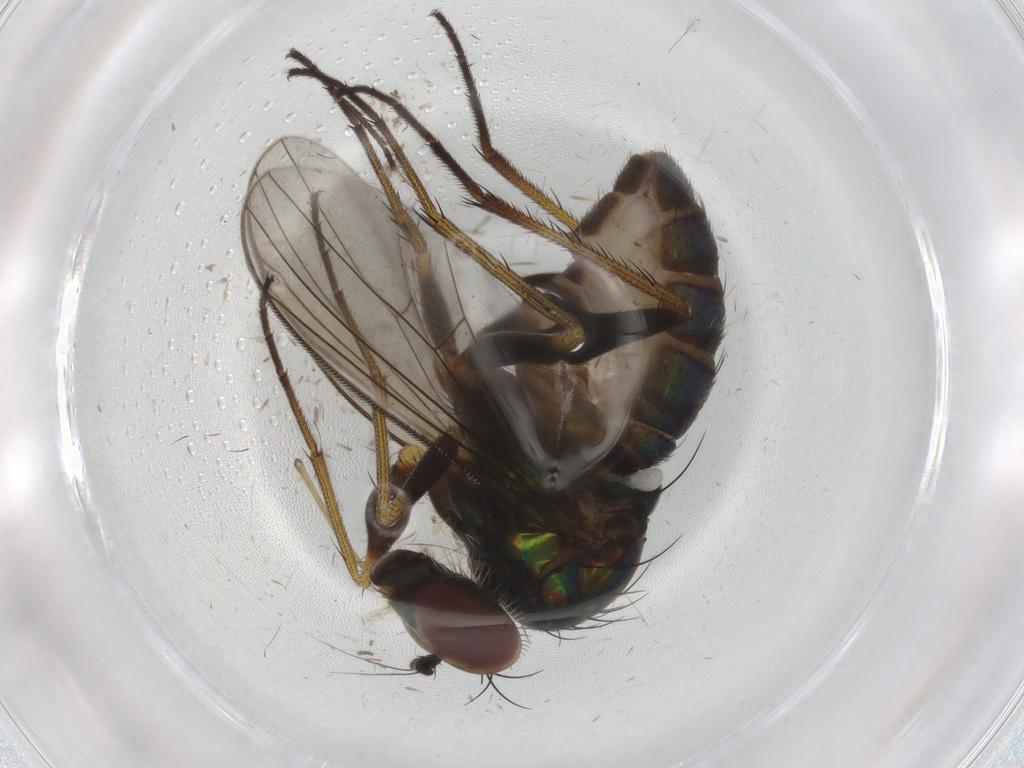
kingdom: Animalia
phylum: Arthropoda
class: Insecta
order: Diptera
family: Dolichopodidae
